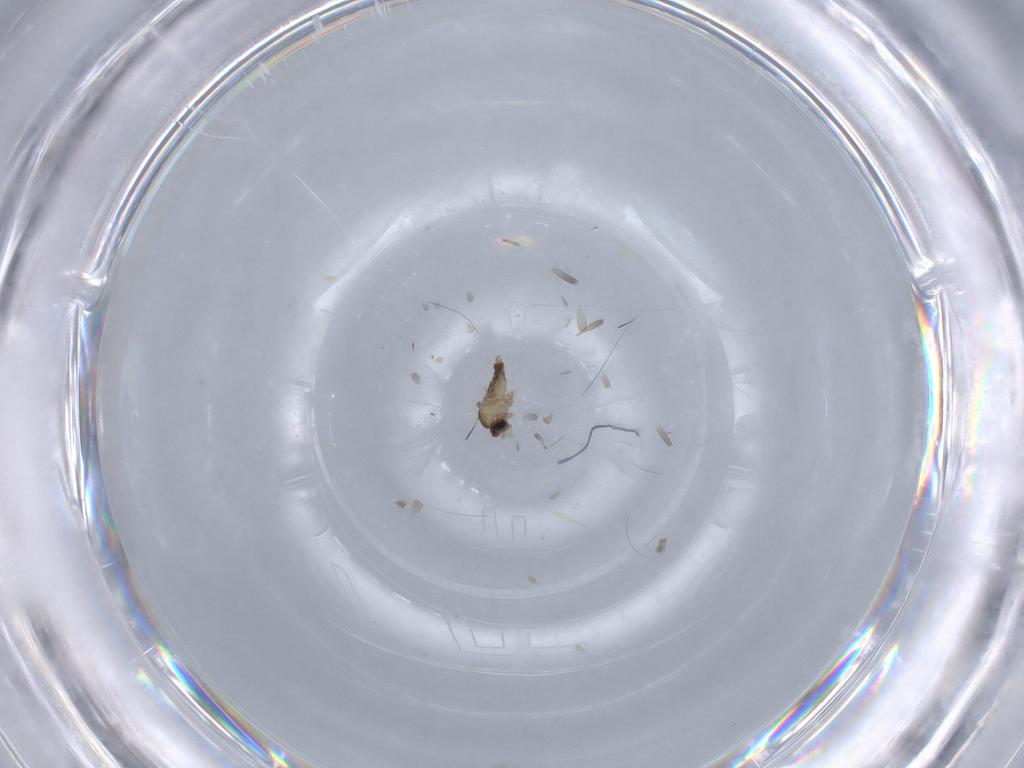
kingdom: Animalia
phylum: Arthropoda
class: Insecta
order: Diptera
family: Cecidomyiidae
